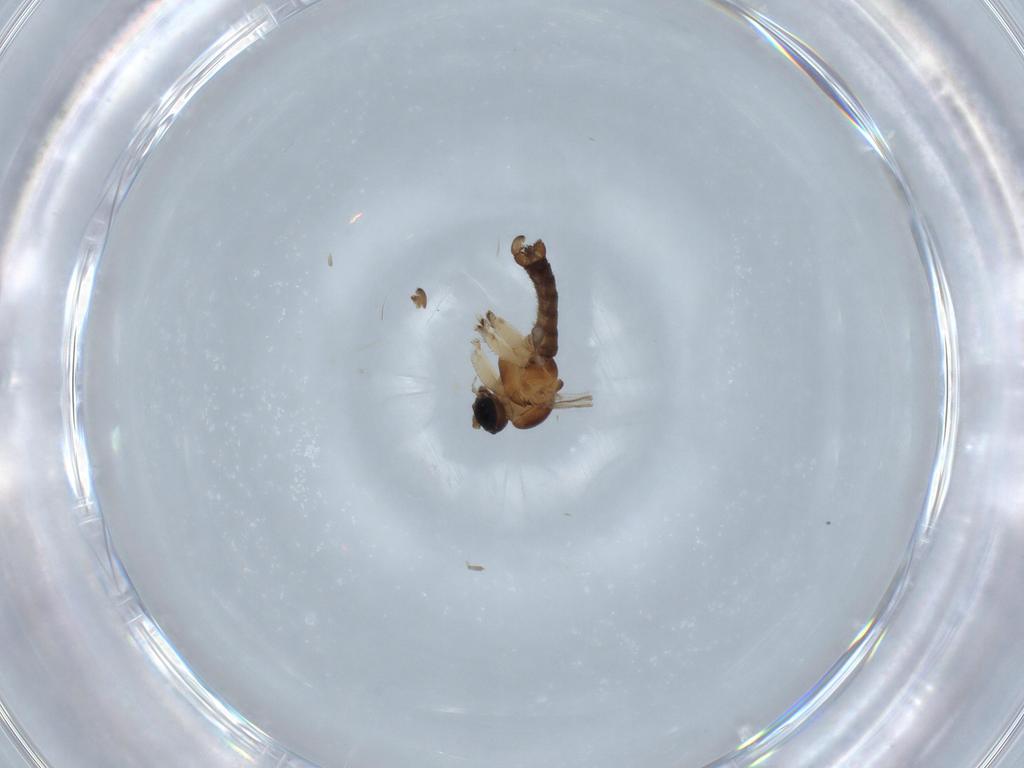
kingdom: Animalia
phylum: Arthropoda
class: Insecta
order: Diptera
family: Sciaridae
